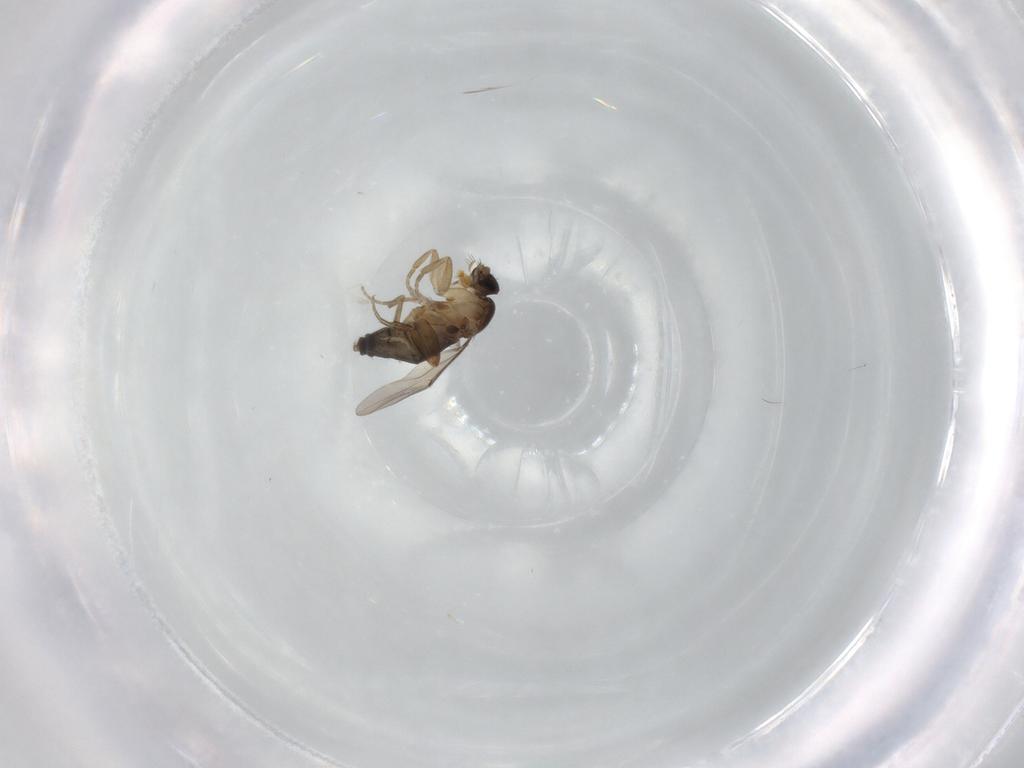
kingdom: Animalia
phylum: Arthropoda
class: Insecta
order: Diptera
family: Phoridae
